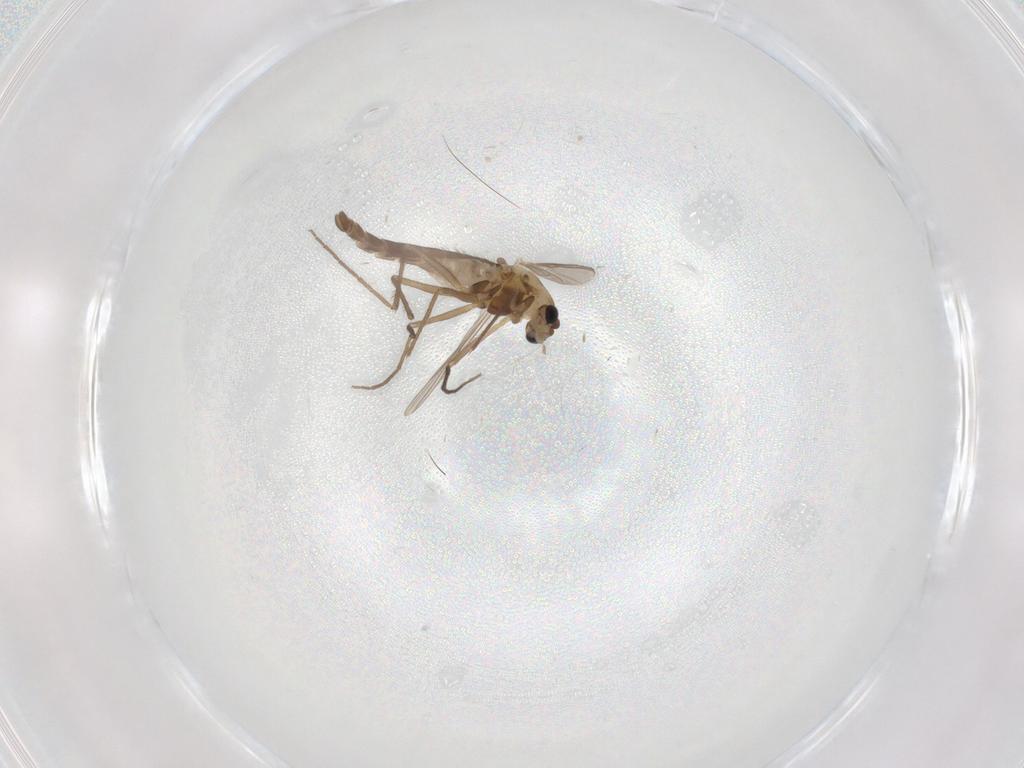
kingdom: Animalia
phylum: Arthropoda
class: Insecta
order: Diptera
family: Chironomidae
